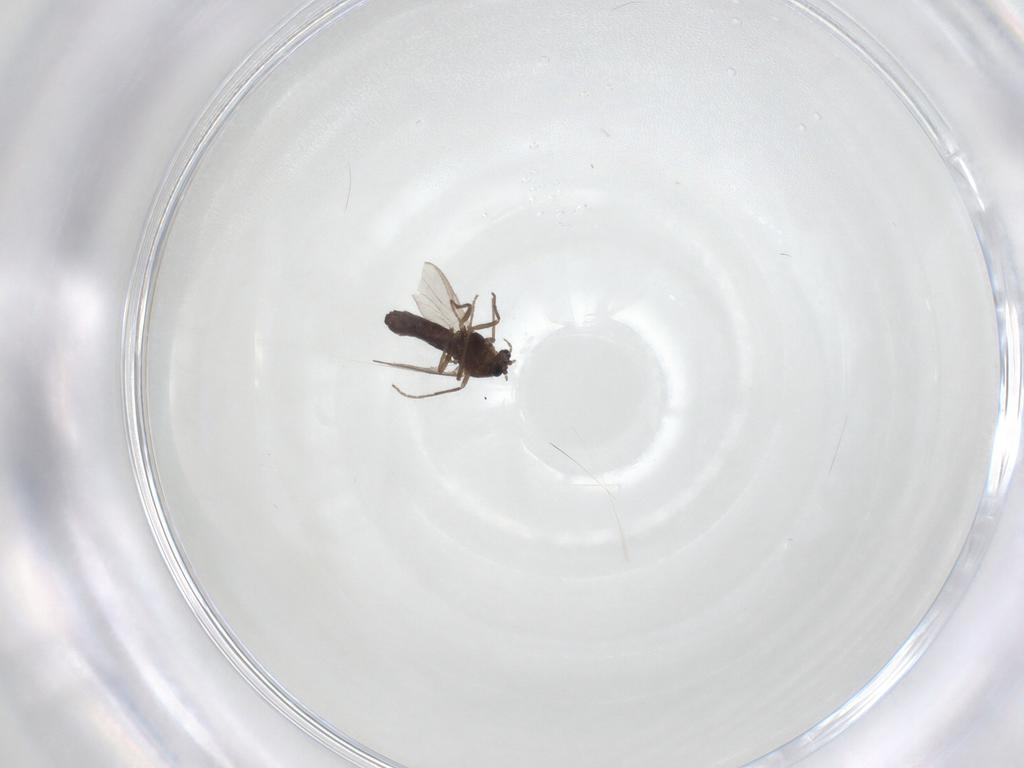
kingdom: Animalia
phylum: Arthropoda
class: Insecta
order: Diptera
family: Chironomidae
